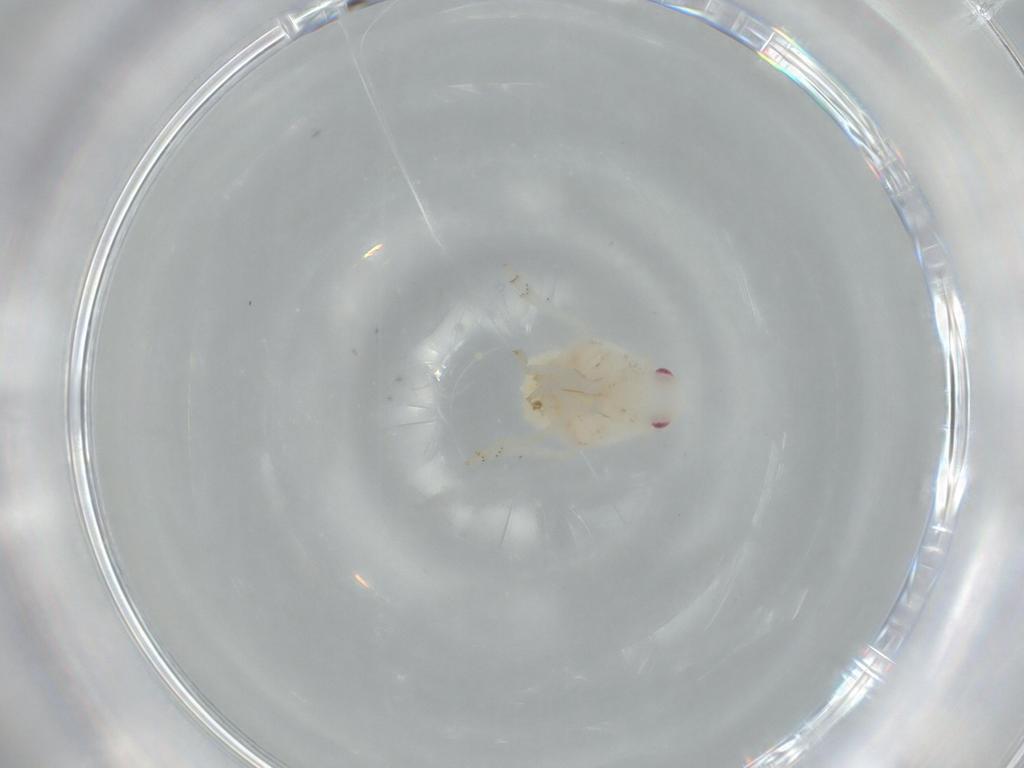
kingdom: Animalia
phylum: Arthropoda
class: Insecta
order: Hemiptera
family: Flatidae
